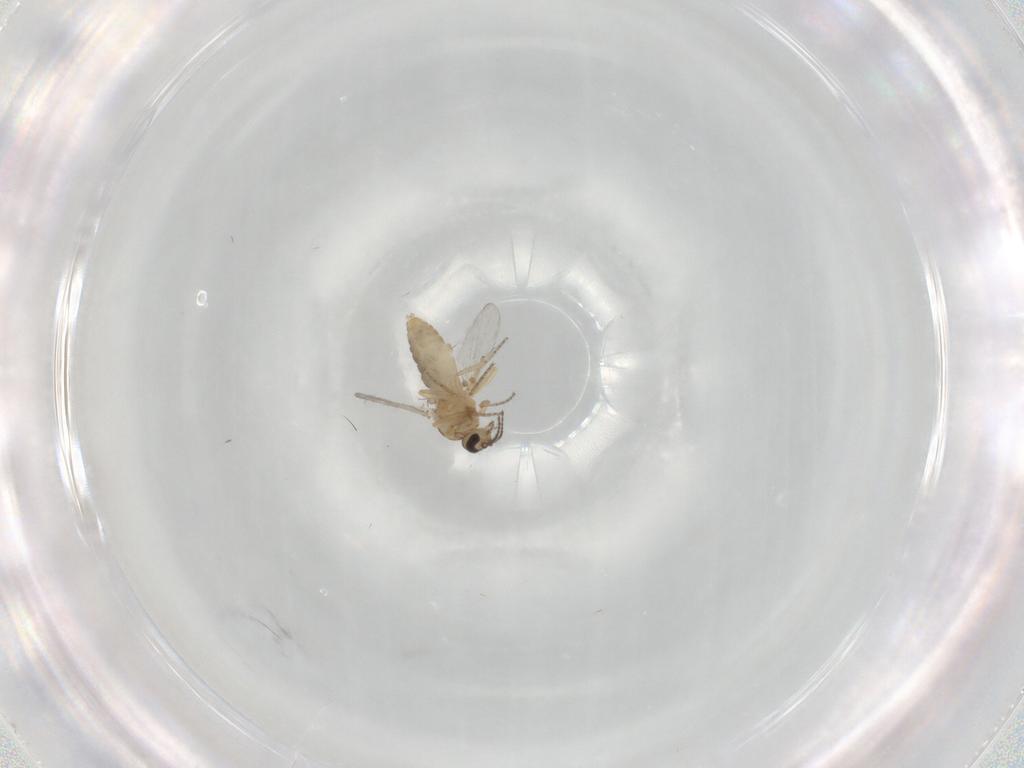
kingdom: Animalia
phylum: Arthropoda
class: Insecta
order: Diptera
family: Ceratopogonidae
